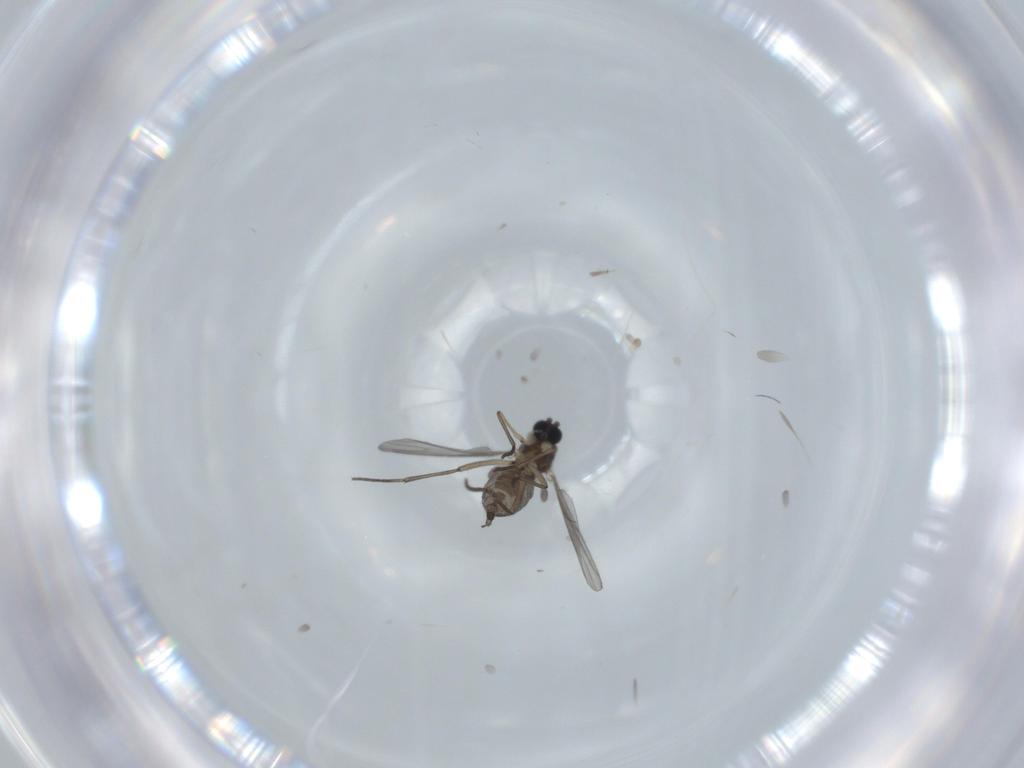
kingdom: Animalia
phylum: Arthropoda
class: Insecta
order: Diptera
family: Sciaridae
